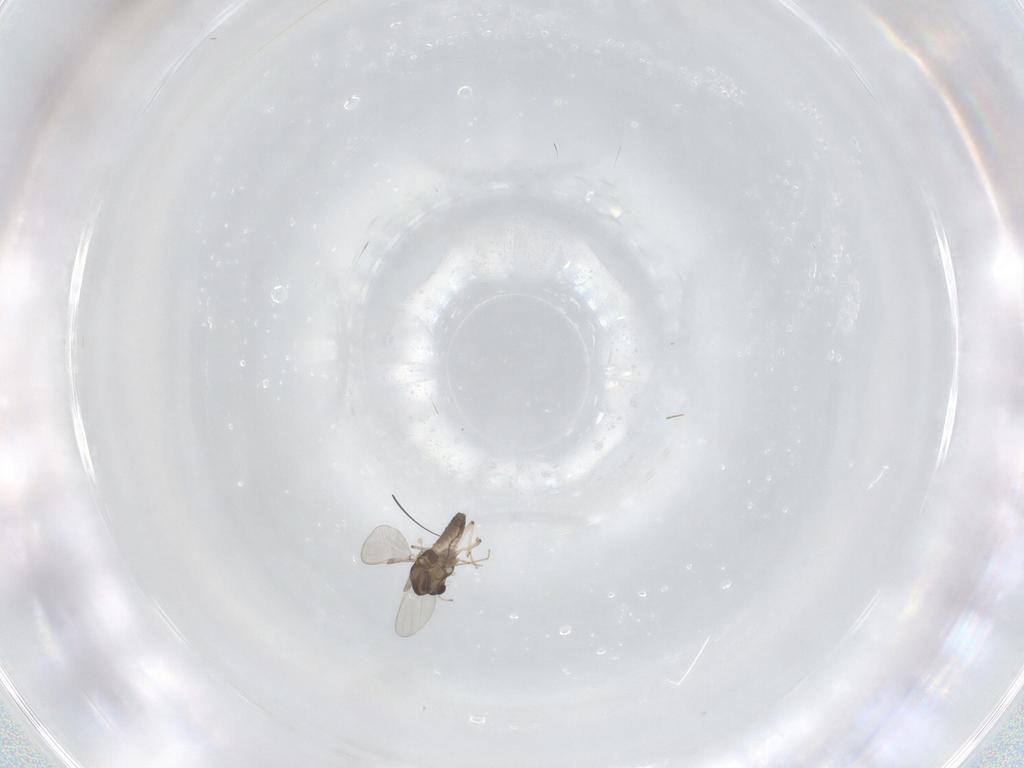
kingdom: Animalia
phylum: Arthropoda
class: Insecta
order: Diptera
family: Chironomidae
